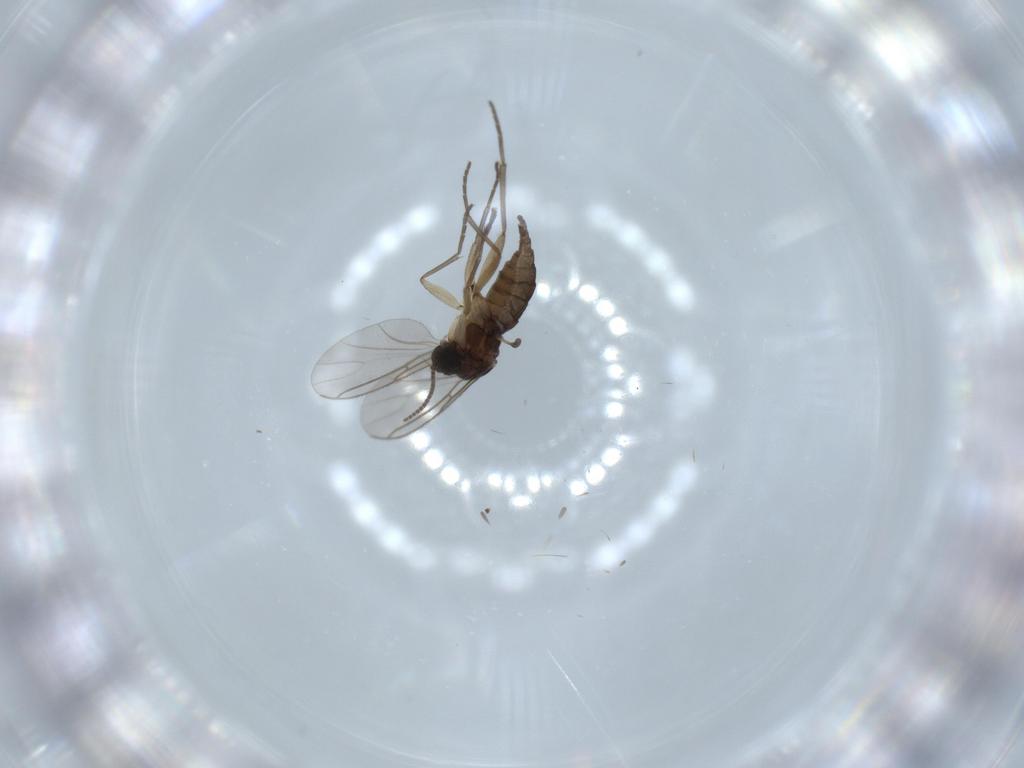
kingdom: Animalia
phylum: Arthropoda
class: Insecta
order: Diptera
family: Sciaridae
